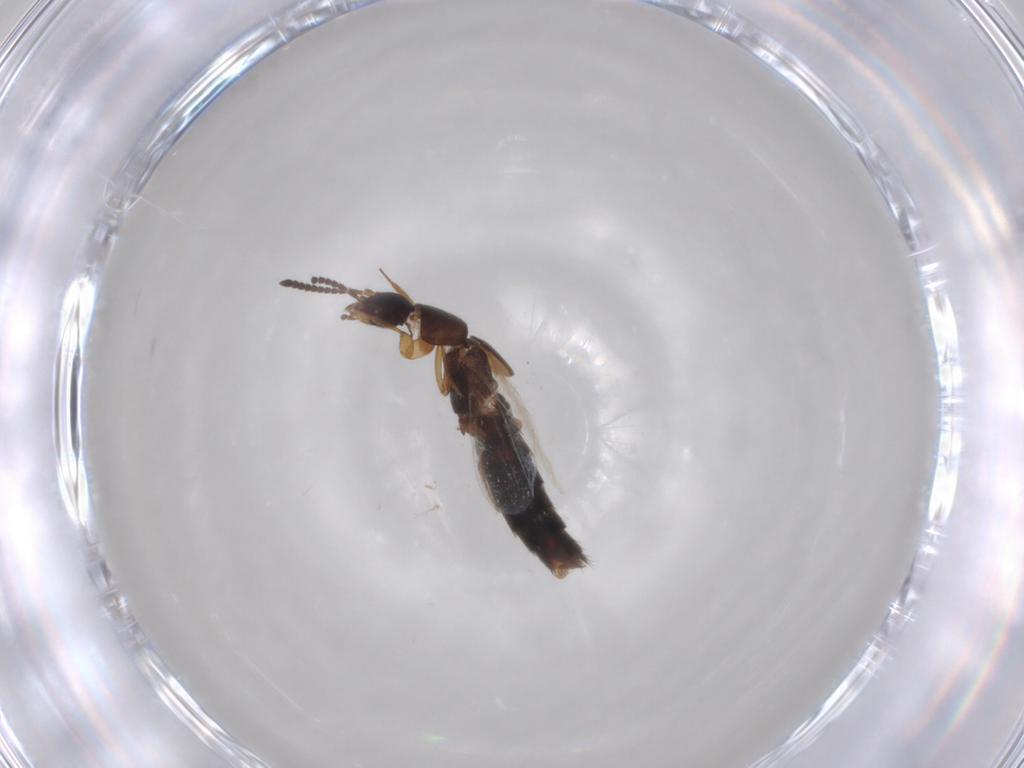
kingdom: Animalia
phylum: Arthropoda
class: Insecta
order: Coleoptera
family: Staphylinidae
